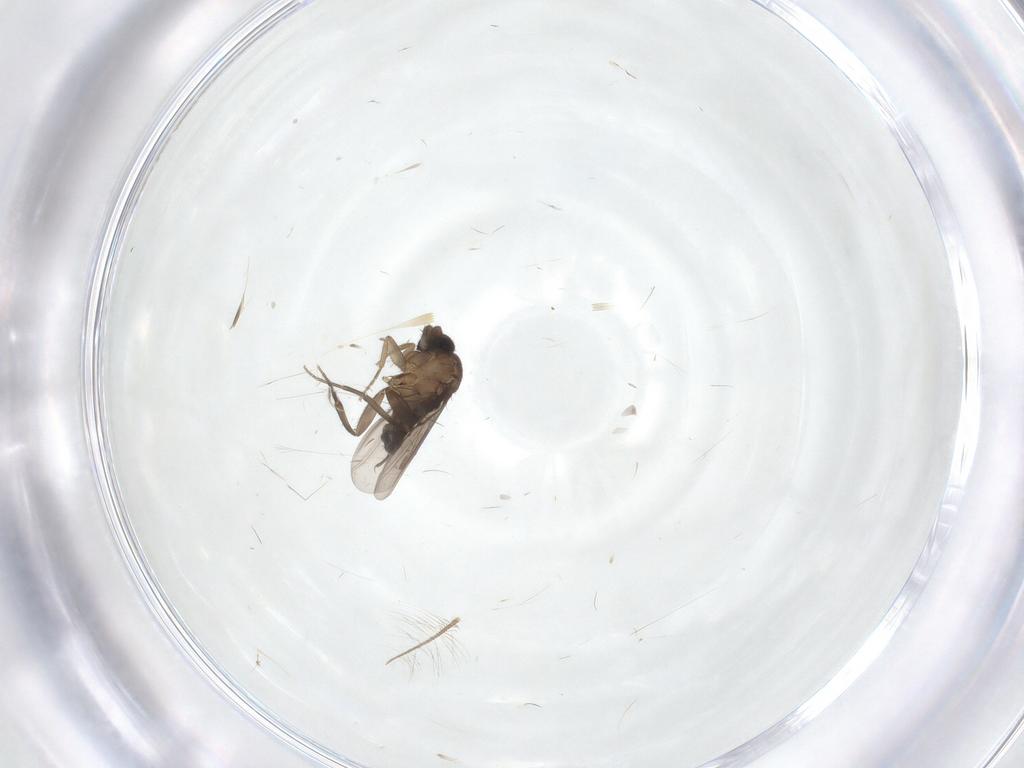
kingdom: Animalia
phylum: Arthropoda
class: Insecta
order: Diptera
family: Phoridae
